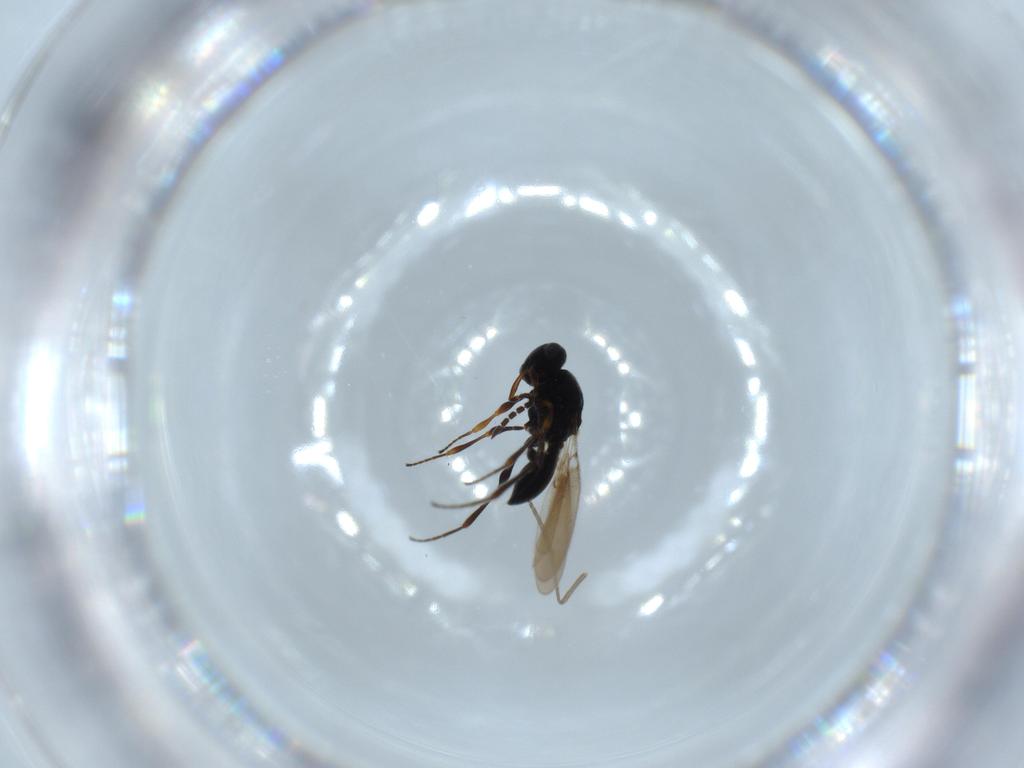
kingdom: Animalia
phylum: Arthropoda
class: Insecta
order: Hymenoptera
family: Platygastridae
